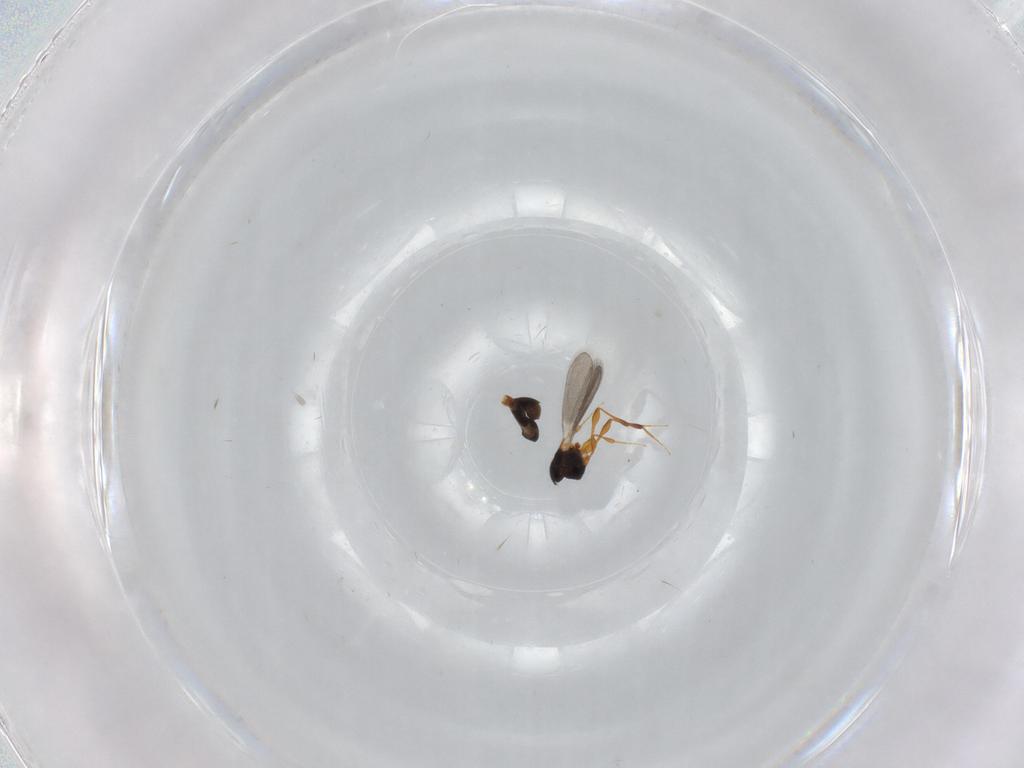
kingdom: Animalia
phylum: Arthropoda
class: Insecta
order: Hymenoptera
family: Platygastridae
